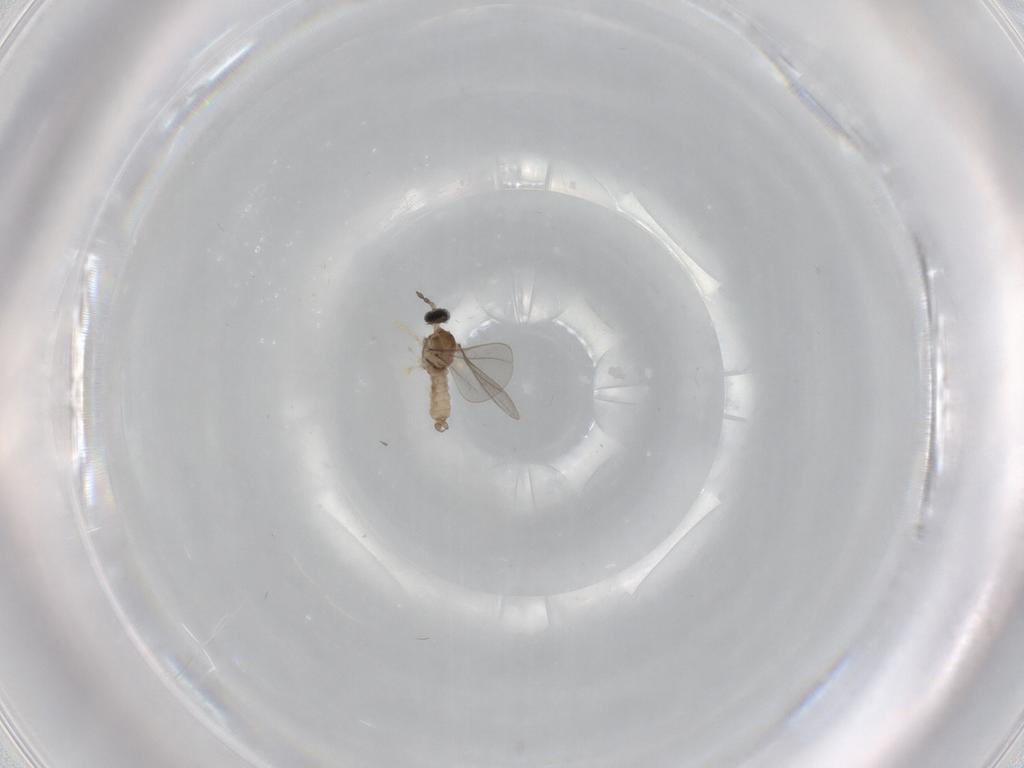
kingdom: Animalia
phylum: Arthropoda
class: Insecta
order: Diptera
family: Cecidomyiidae
